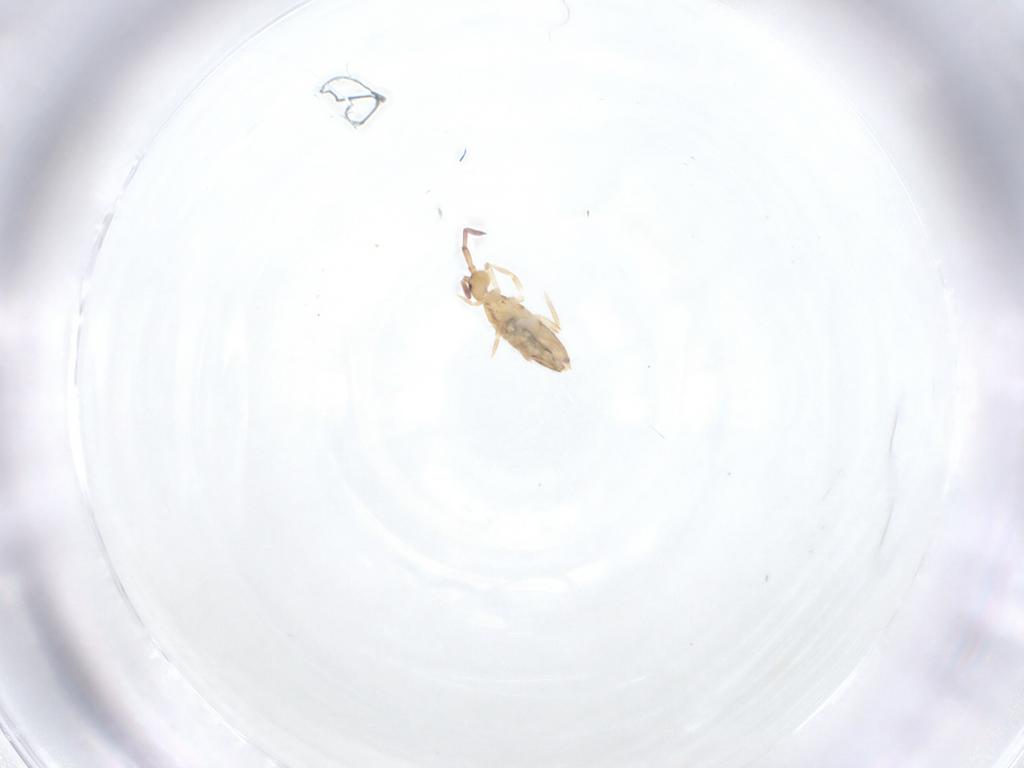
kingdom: Animalia
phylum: Arthropoda
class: Collembola
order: Entomobryomorpha
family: Entomobryidae
